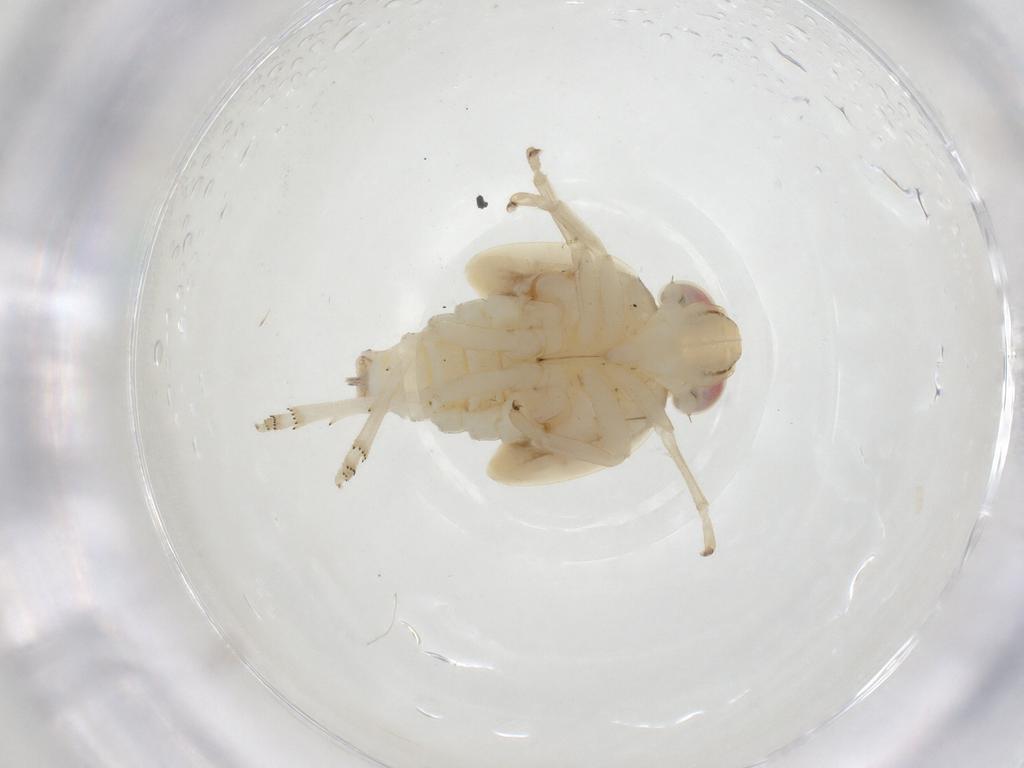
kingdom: Animalia
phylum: Arthropoda
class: Insecta
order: Hemiptera
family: Nogodinidae
